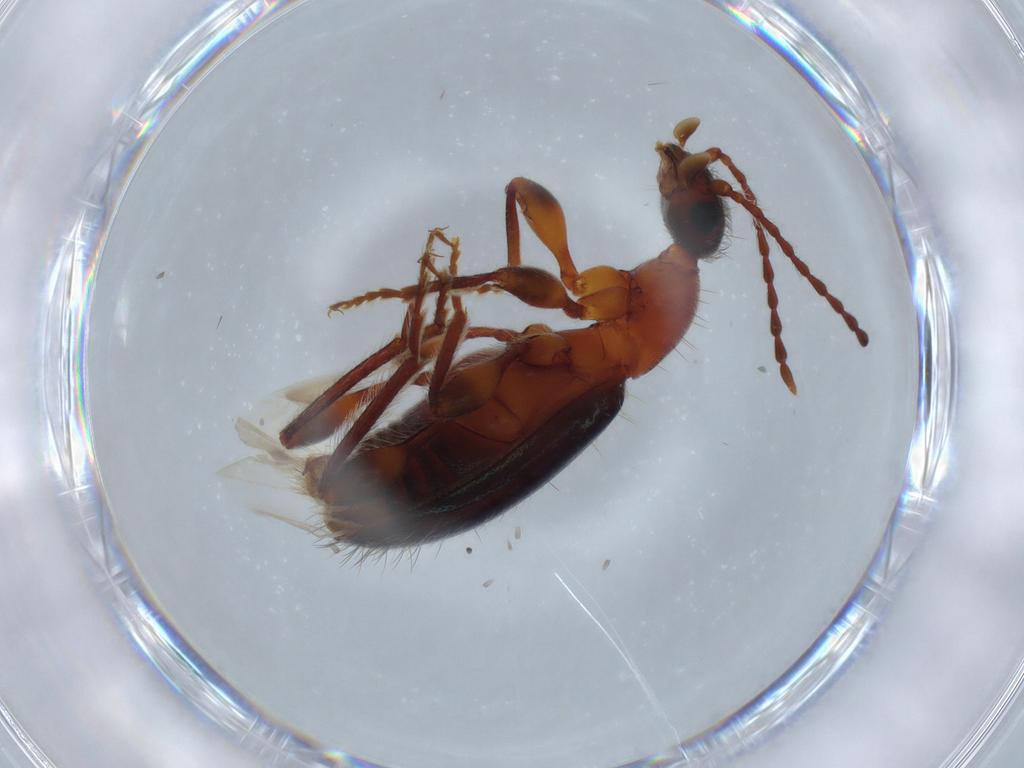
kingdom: Animalia
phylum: Arthropoda
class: Insecta
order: Coleoptera
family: Anthicidae
